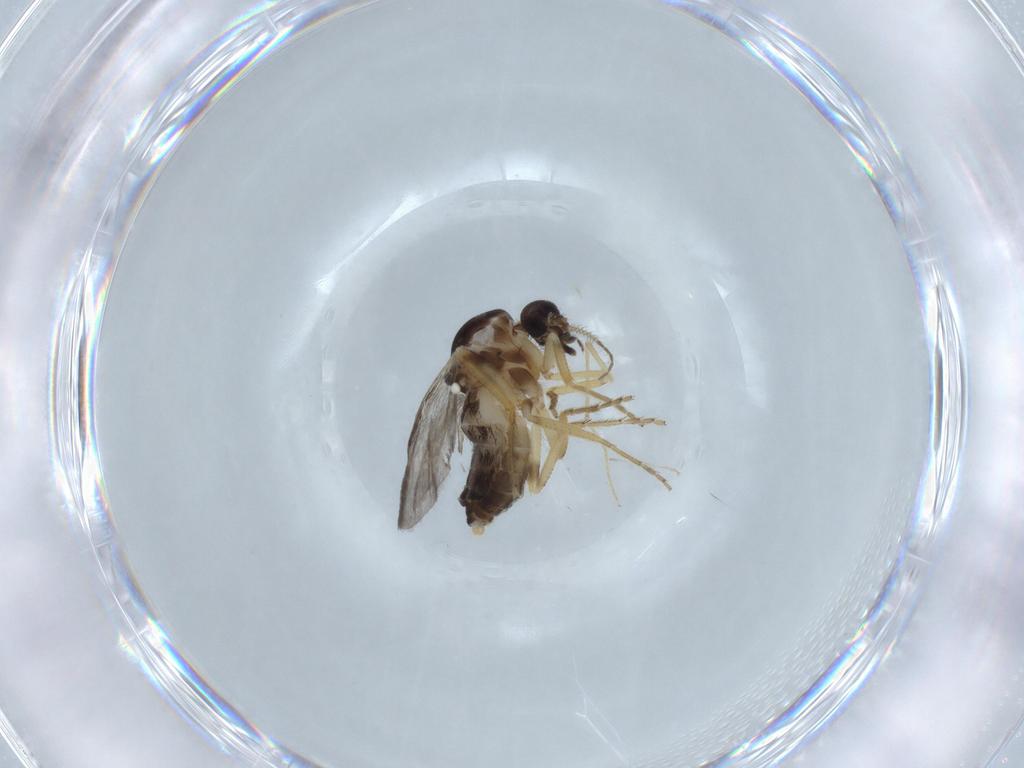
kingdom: Animalia
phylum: Arthropoda
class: Insecta
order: Diptera
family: Ceratopogonidae
